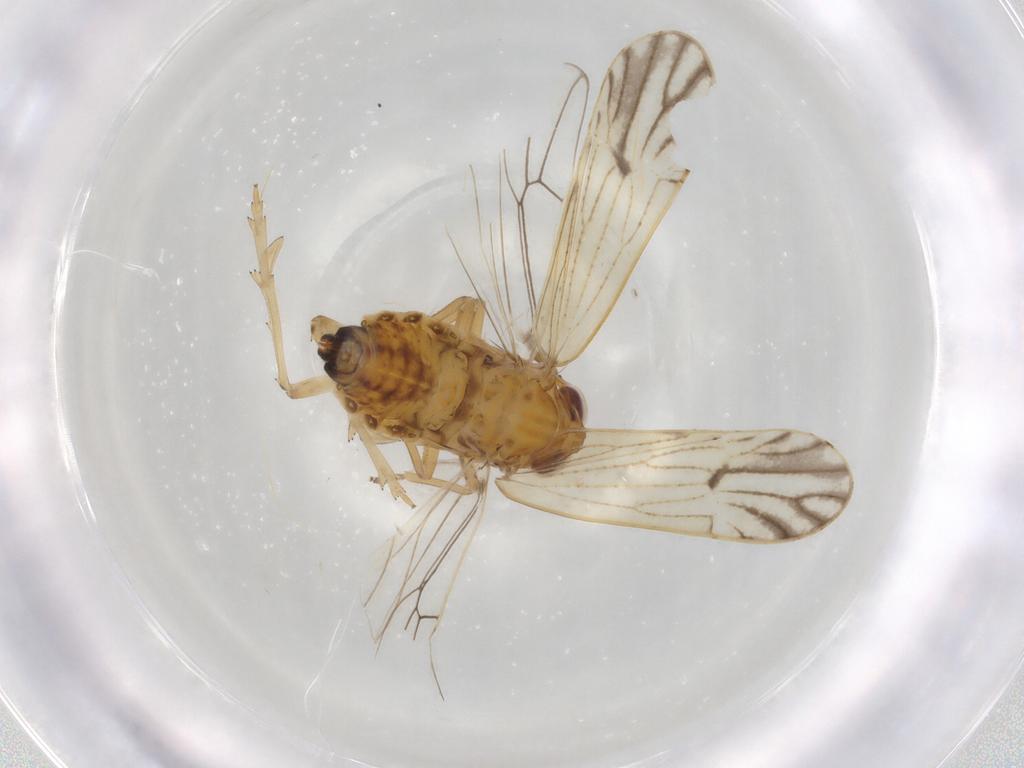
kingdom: Animalia
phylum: Arthropoda
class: Insecta
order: Hemiptera
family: Delphacidae
